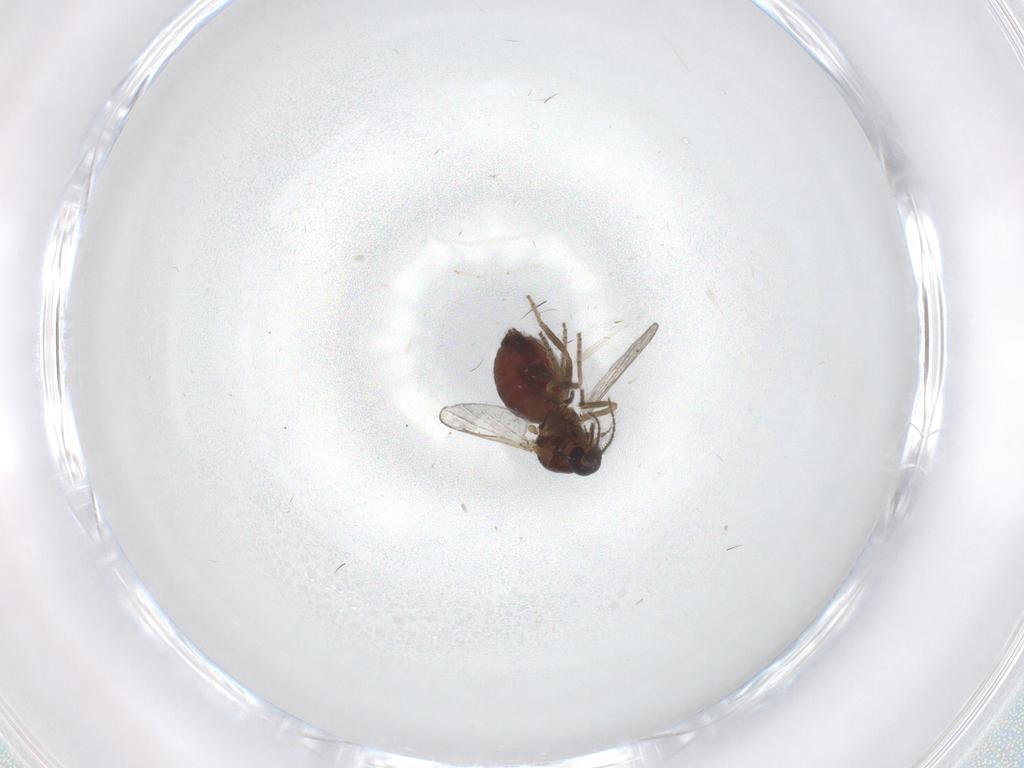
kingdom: Animalia
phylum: Arthropoda
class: Insecta
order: Diptera
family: Ceratopogonidae
